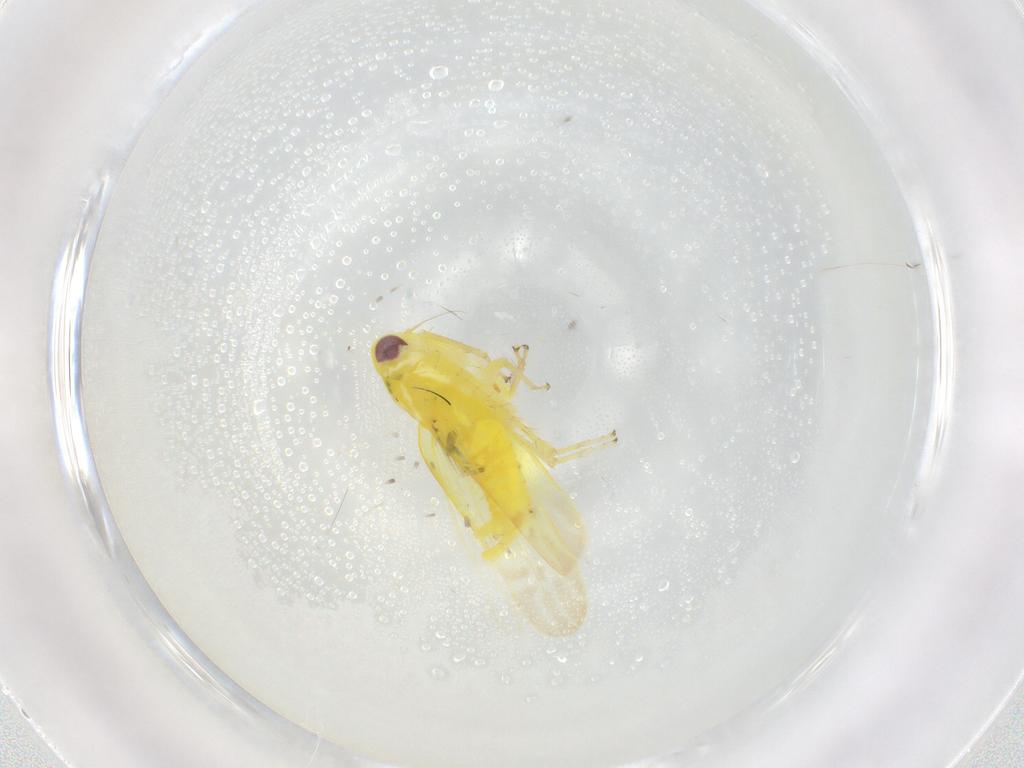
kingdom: Animalia
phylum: Arthropoda
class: Insecta
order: Hemiptera
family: Cicadellidae
